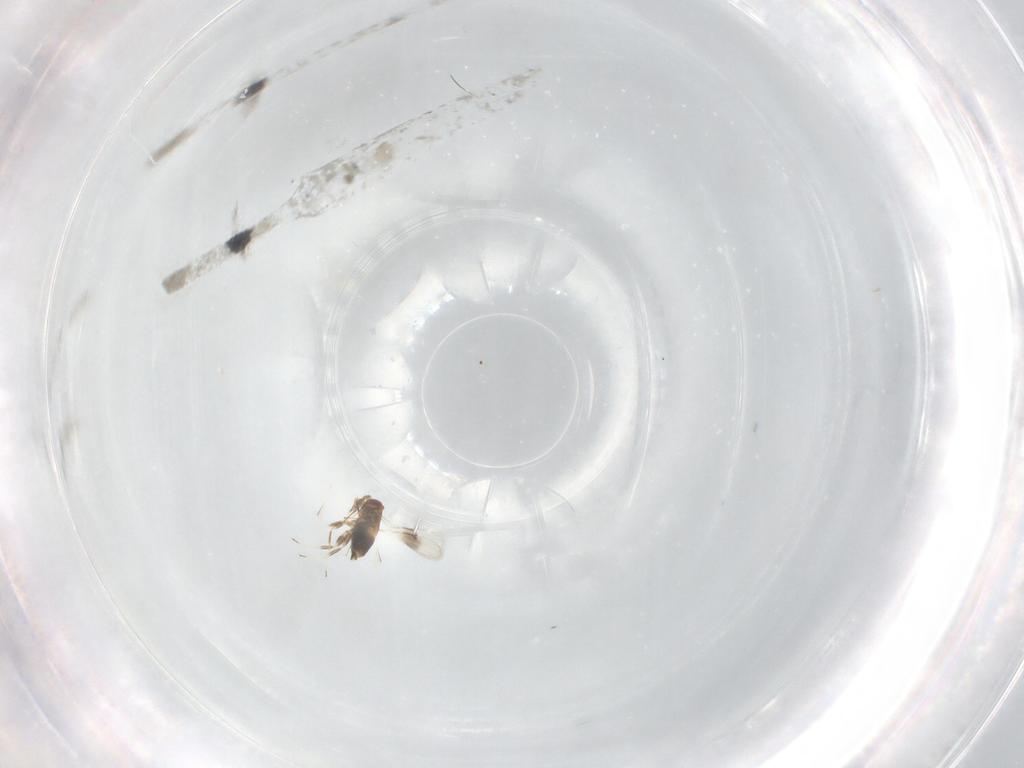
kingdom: Animalia
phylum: Arthropoda
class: Insecta
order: Hymenoptera
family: Trichogrammatidae
